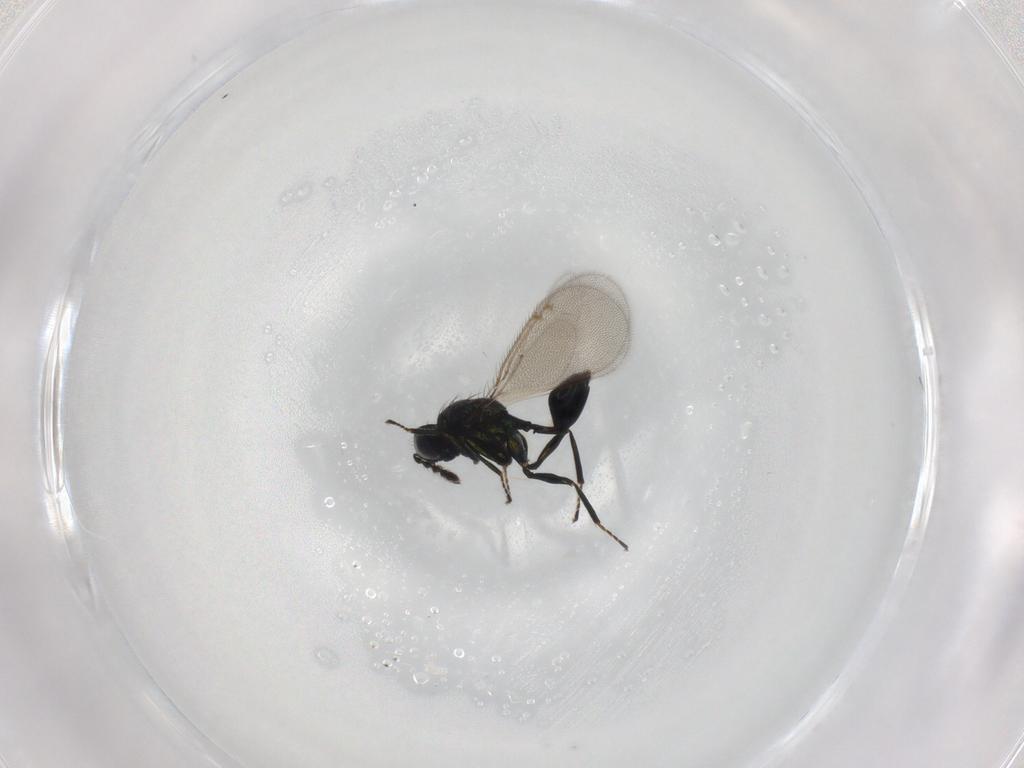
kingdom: Animalia
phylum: Arthropoda
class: Insecta
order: Hymenoptera
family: Eulophidae
